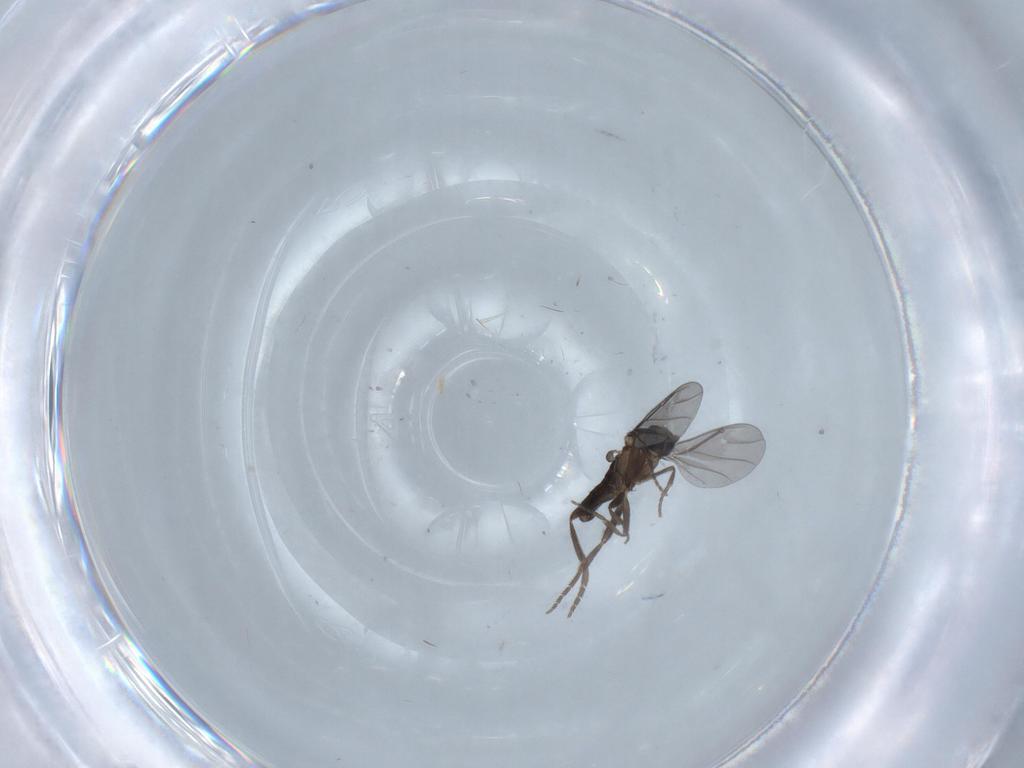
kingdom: Animalia
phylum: Arthropoda
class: Insecta
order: Diptera
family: Phoridae
